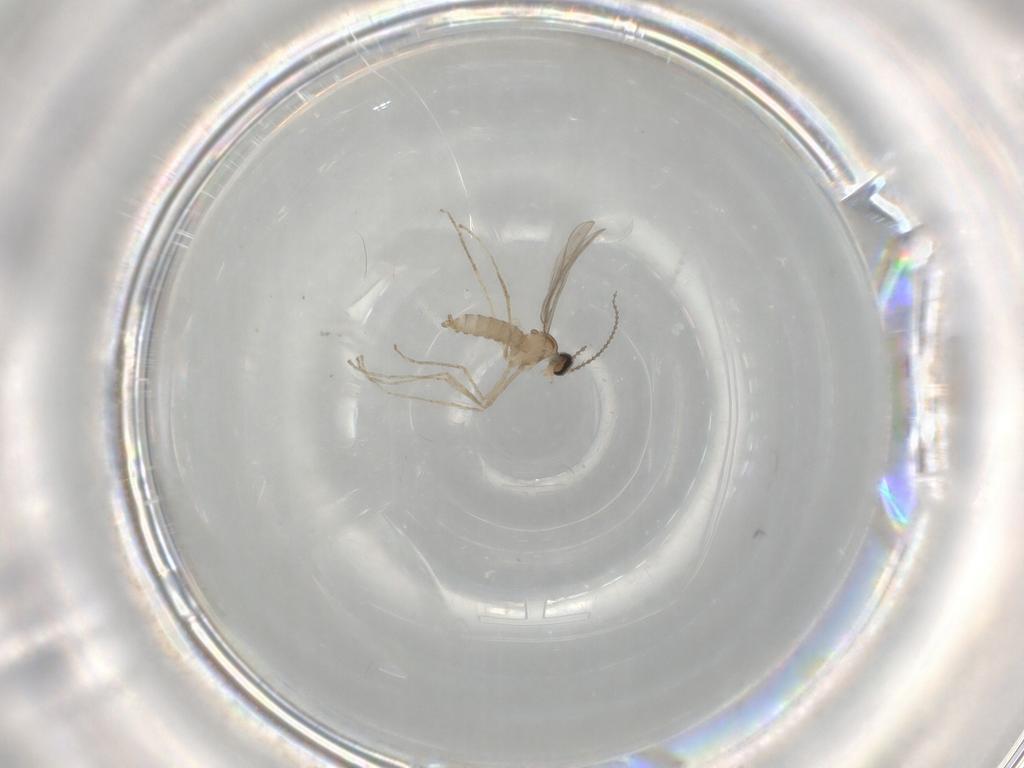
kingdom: Animalia
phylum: Arthropoda
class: Insecta
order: Diptera
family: Cecidomyiidae
